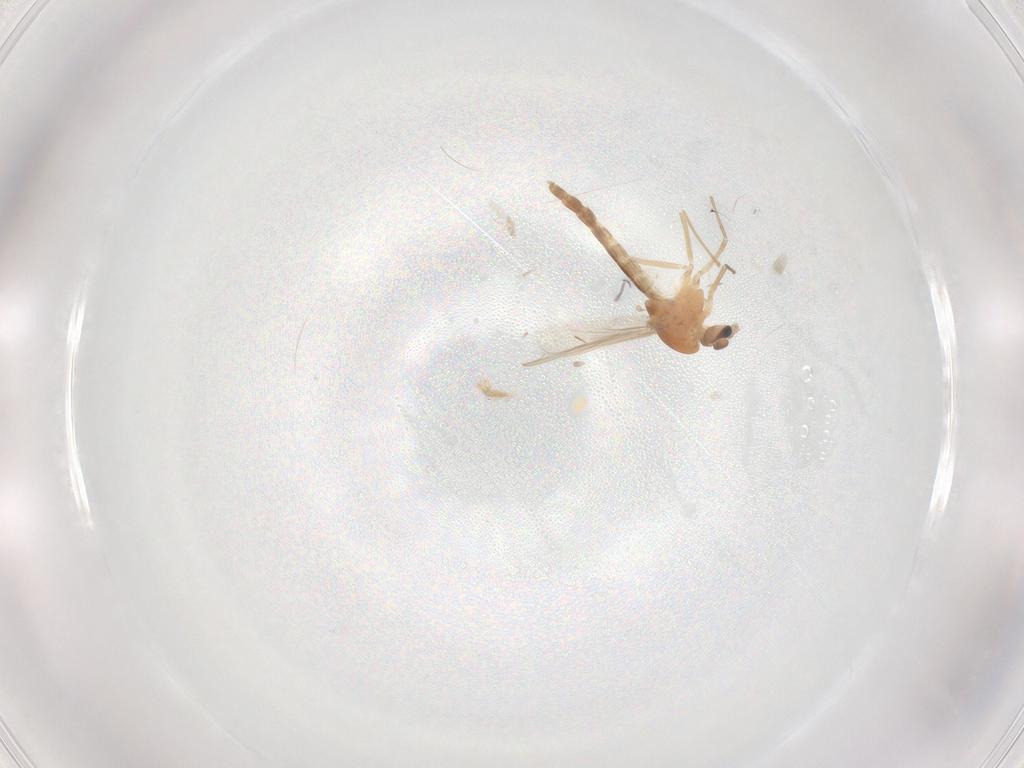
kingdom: Animalia
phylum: Arthropoda
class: Insecta
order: Diptera
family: Chironomidae
